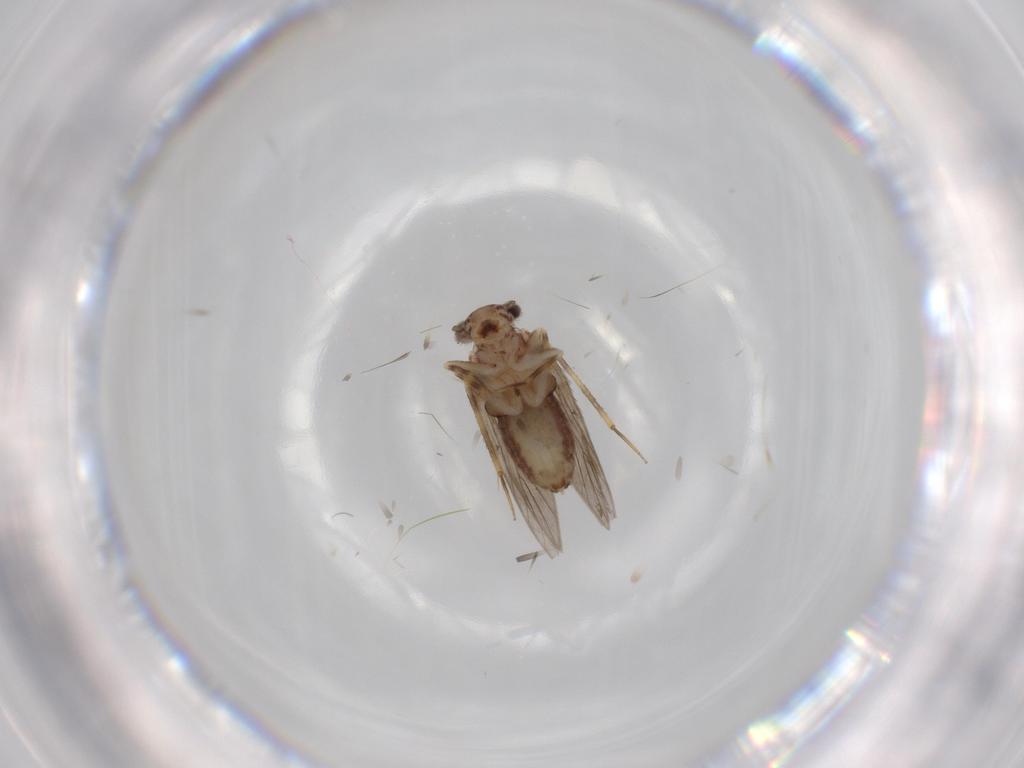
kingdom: Animalia
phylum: Arthropoda
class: Insecta
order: Psocodea
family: Lepidopsocidae
